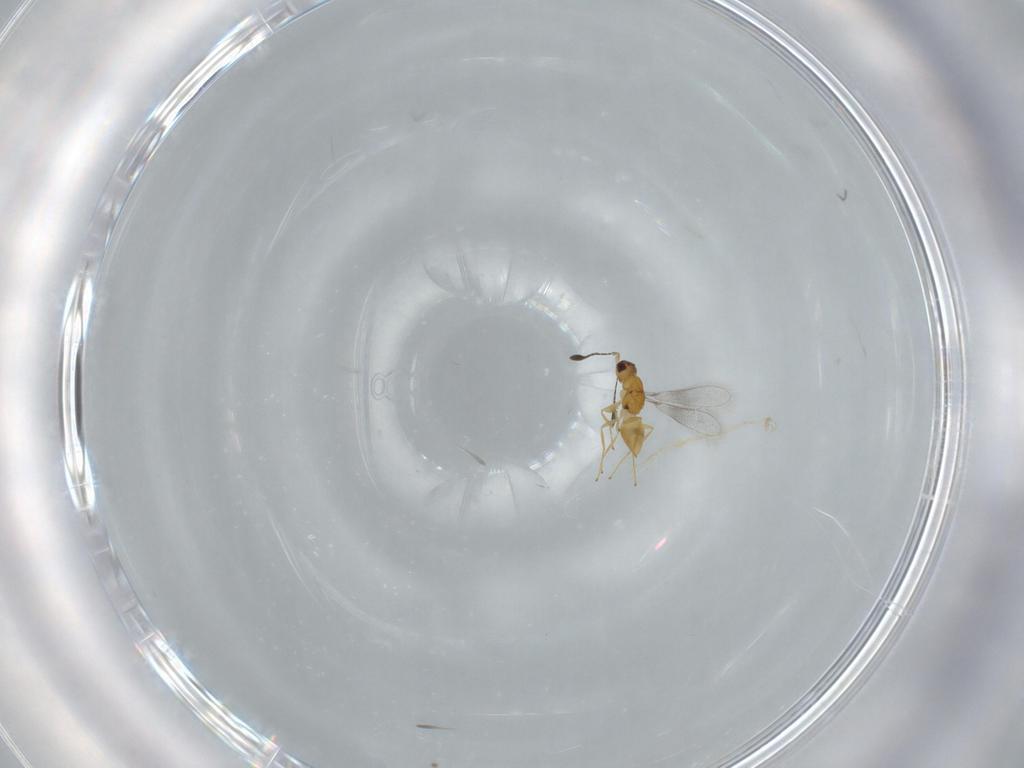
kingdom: Animalia
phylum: Arthropoda
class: Insecta
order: Hymenoptera
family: Mymaridae
